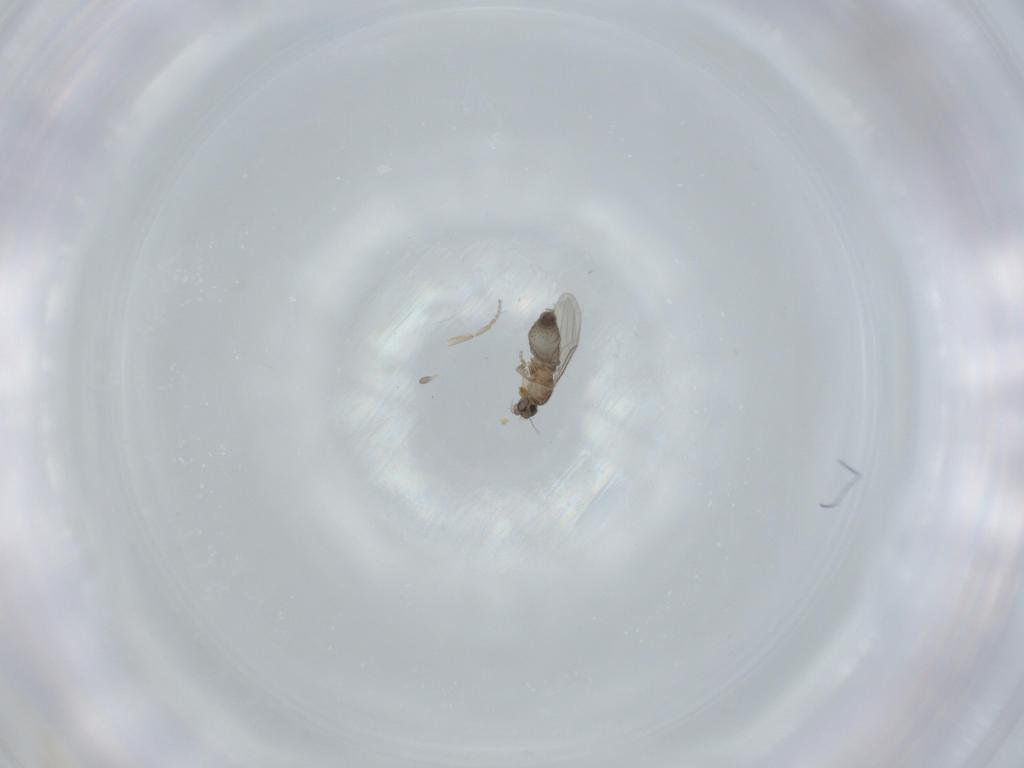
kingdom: Animalia
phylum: Arthropoda
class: Insecta
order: Diptera
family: Phoridae
